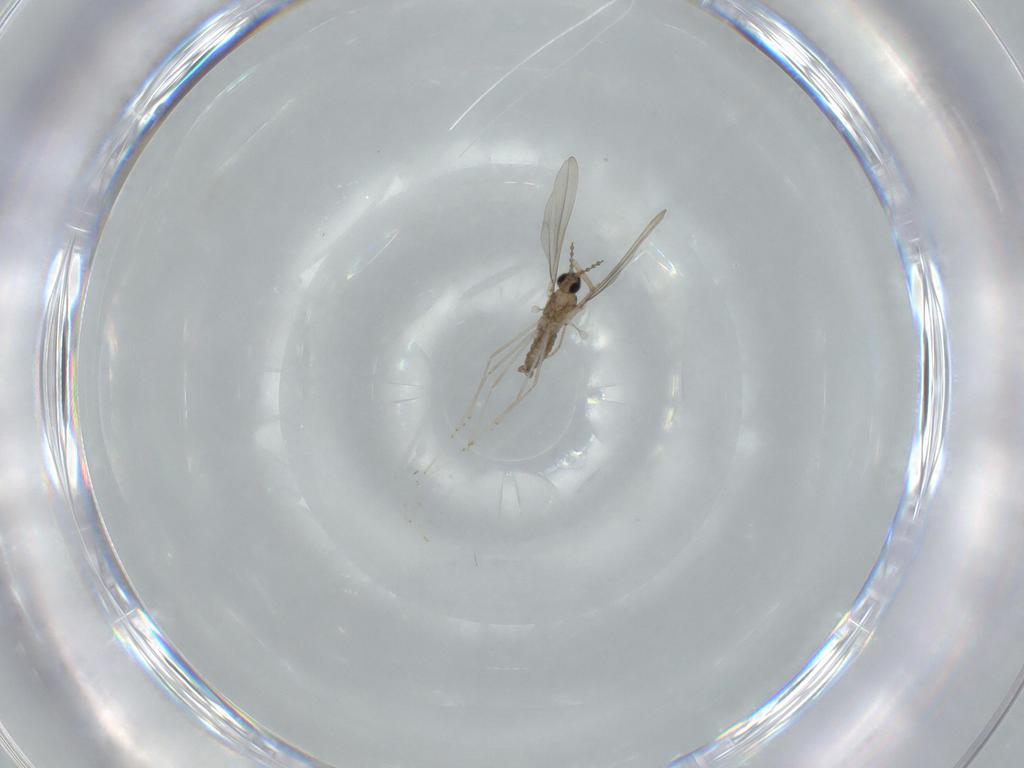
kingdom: Animalia
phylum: Arthropoda
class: Insecta
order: Diptera
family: Cecidomyiidae
